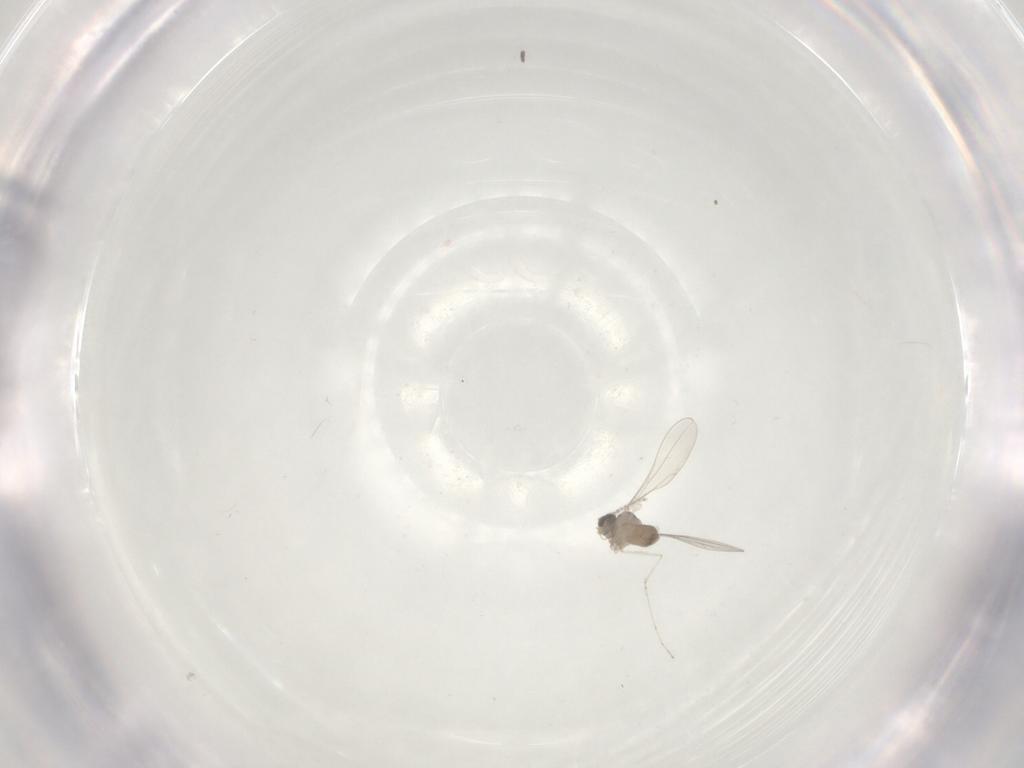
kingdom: Animalia
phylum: Arthropoda
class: Insecta
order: Diptera
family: Cecidomyiidae
